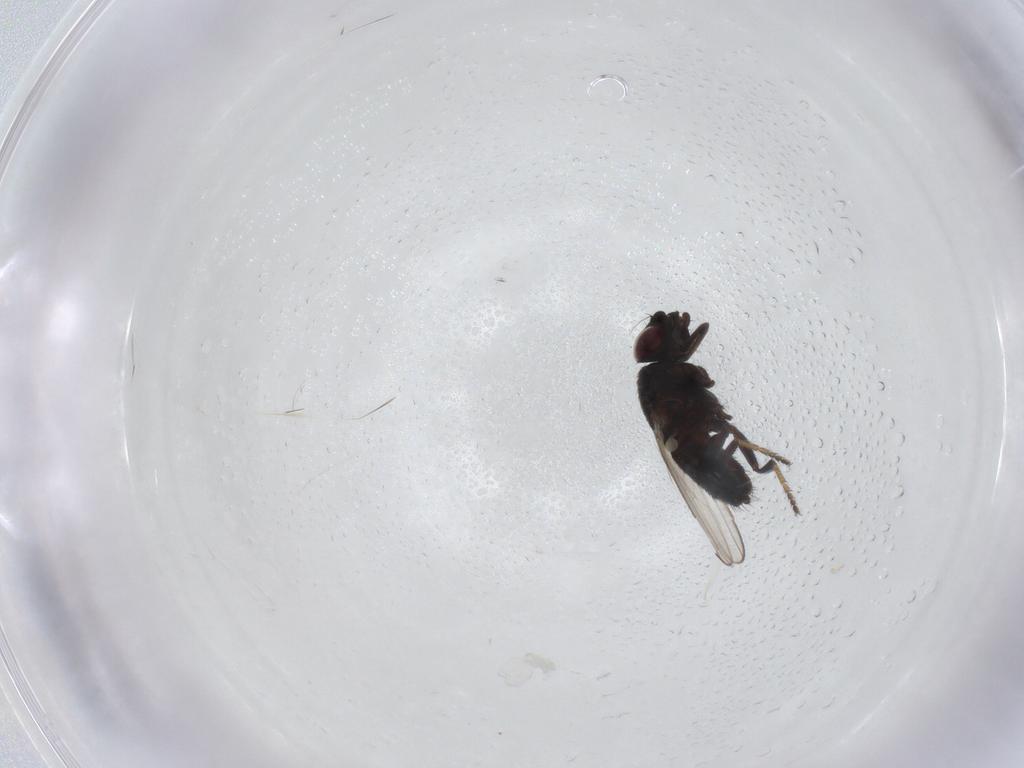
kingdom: Animalia
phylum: Arthropoda
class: Insecta
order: Diptera
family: Milichiidae
